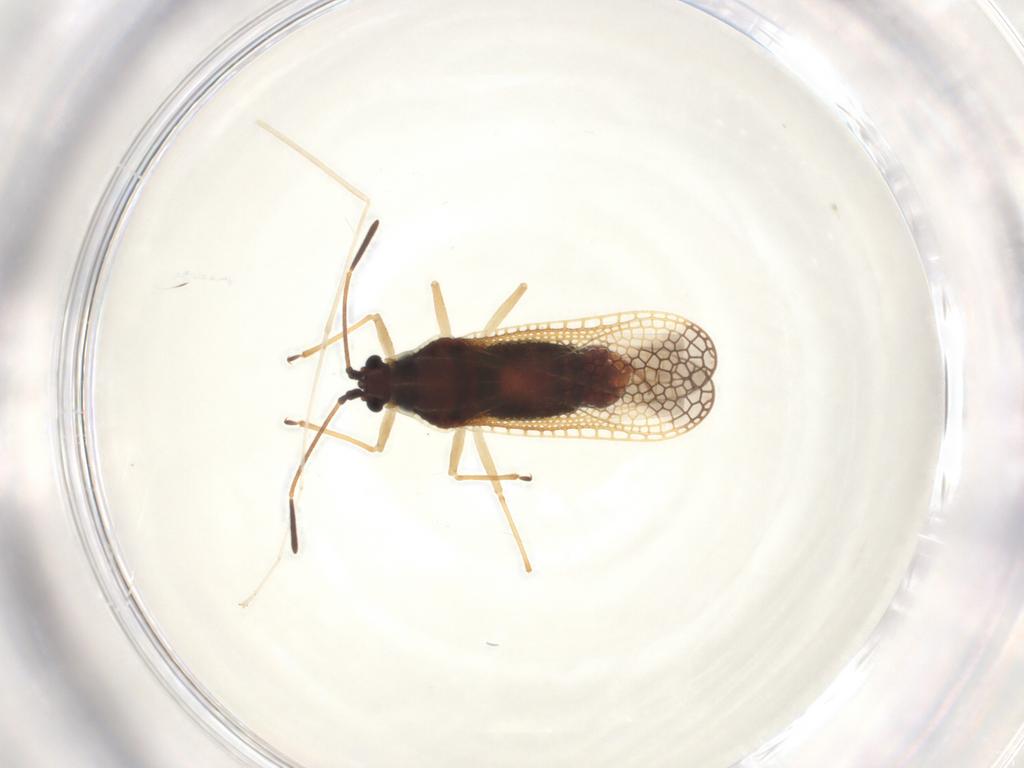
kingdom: Animalia
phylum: Arthropoda
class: Insecta
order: Hemiptera
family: Tingidae
